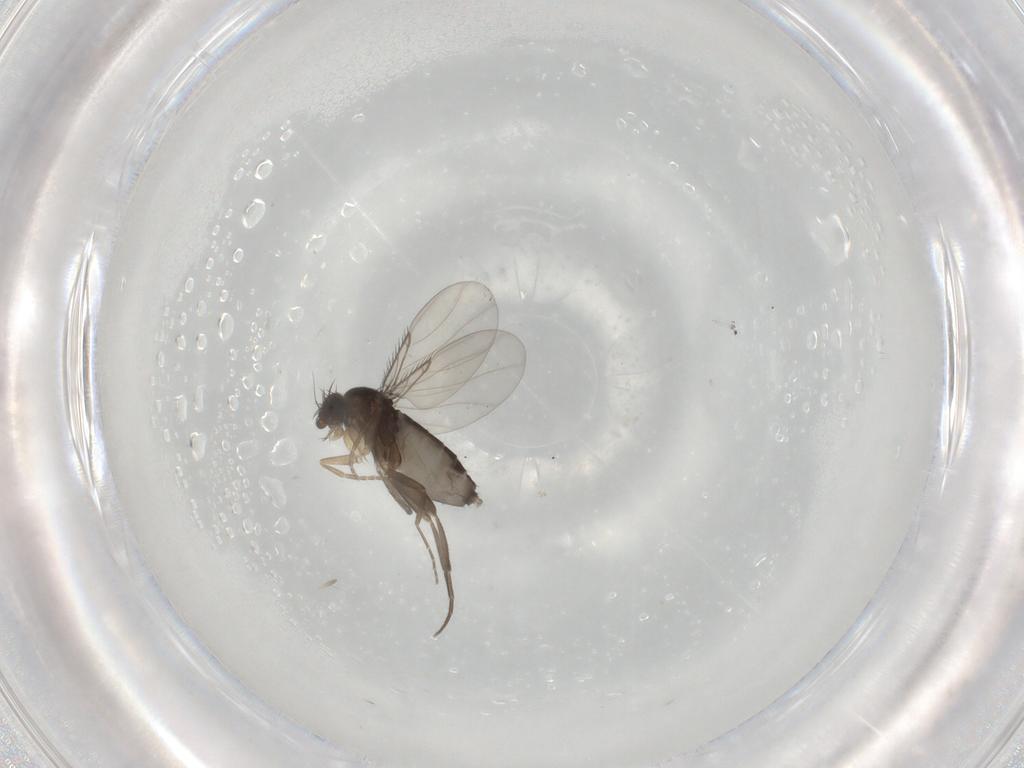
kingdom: Animalia
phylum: Arthropoda
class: Insecta
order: Diptera
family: Phoridae
